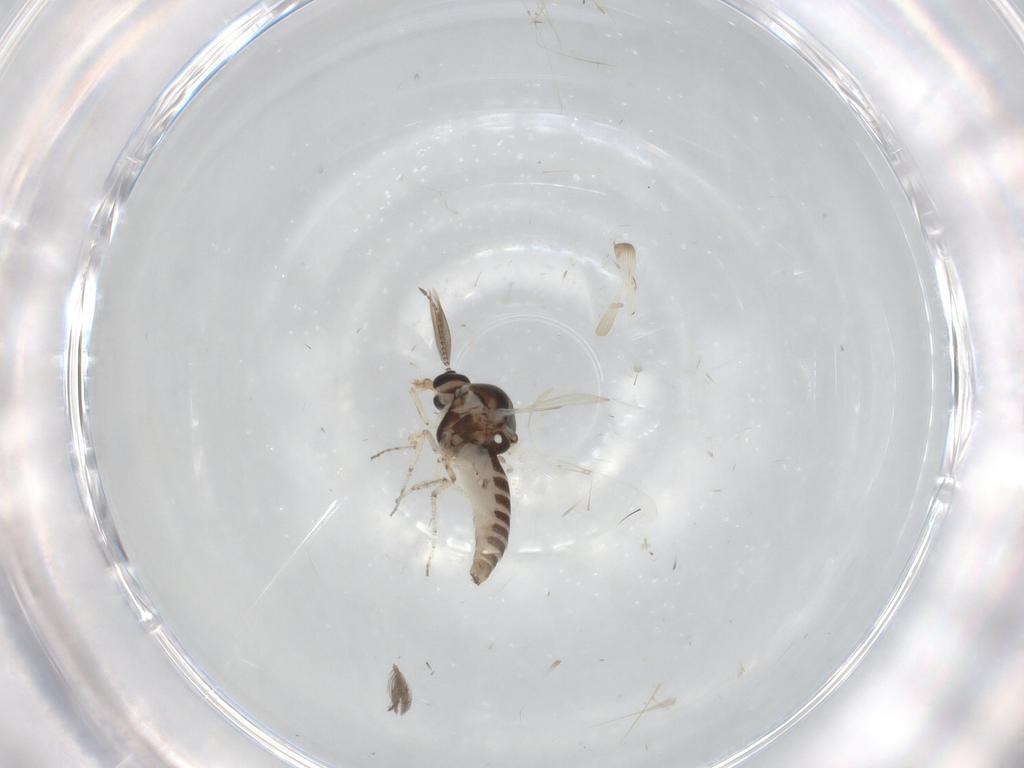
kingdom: Animalia
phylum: Arthropoda
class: Insecta
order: Diptera
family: Ceratopogonidae
